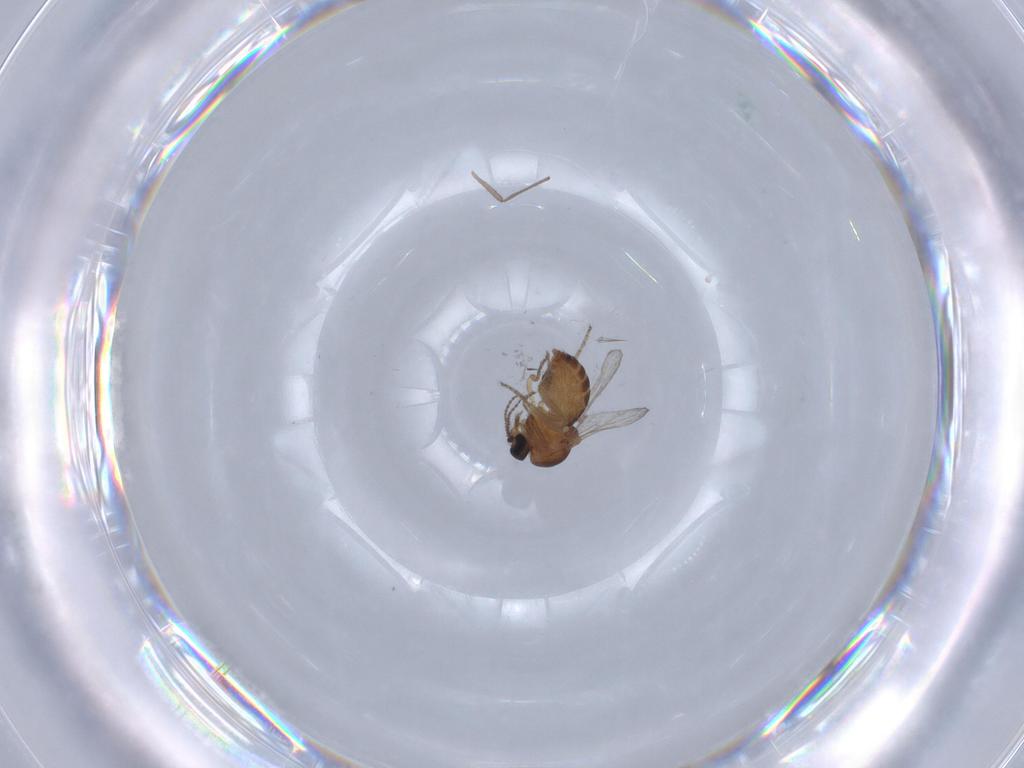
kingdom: Animalia
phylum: Arthropoda
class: Insecta
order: Diptera
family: Ceratopogonidae
